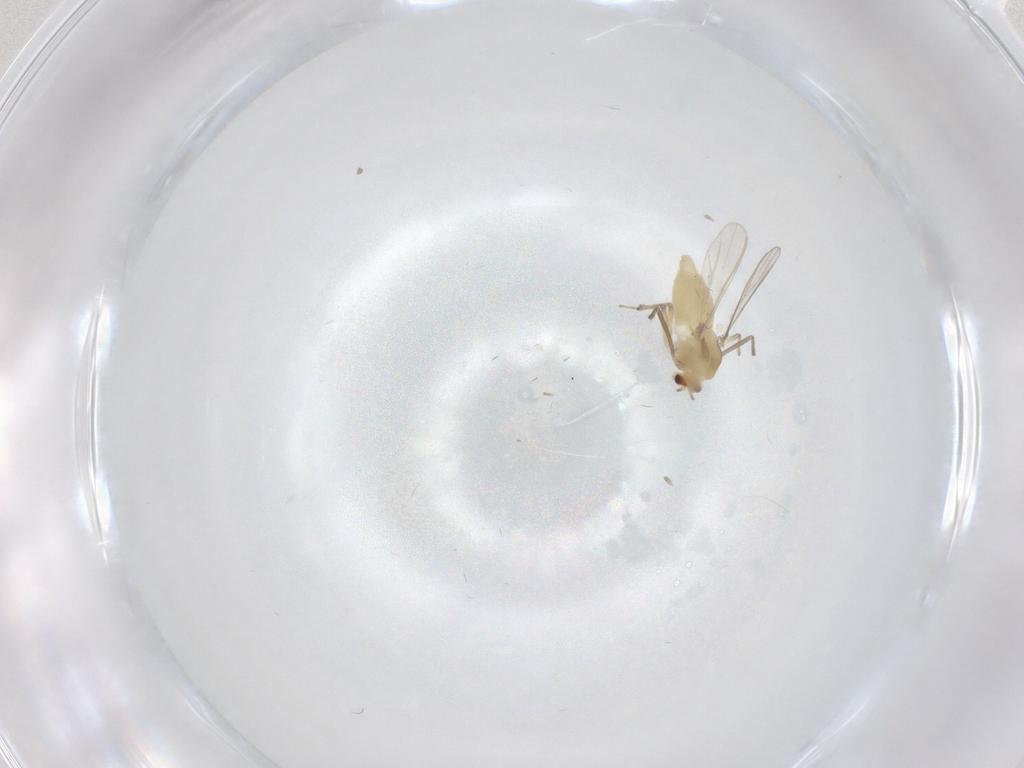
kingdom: Animalia
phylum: Arthropoda
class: Insecta
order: Diptera
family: Chironomidae
